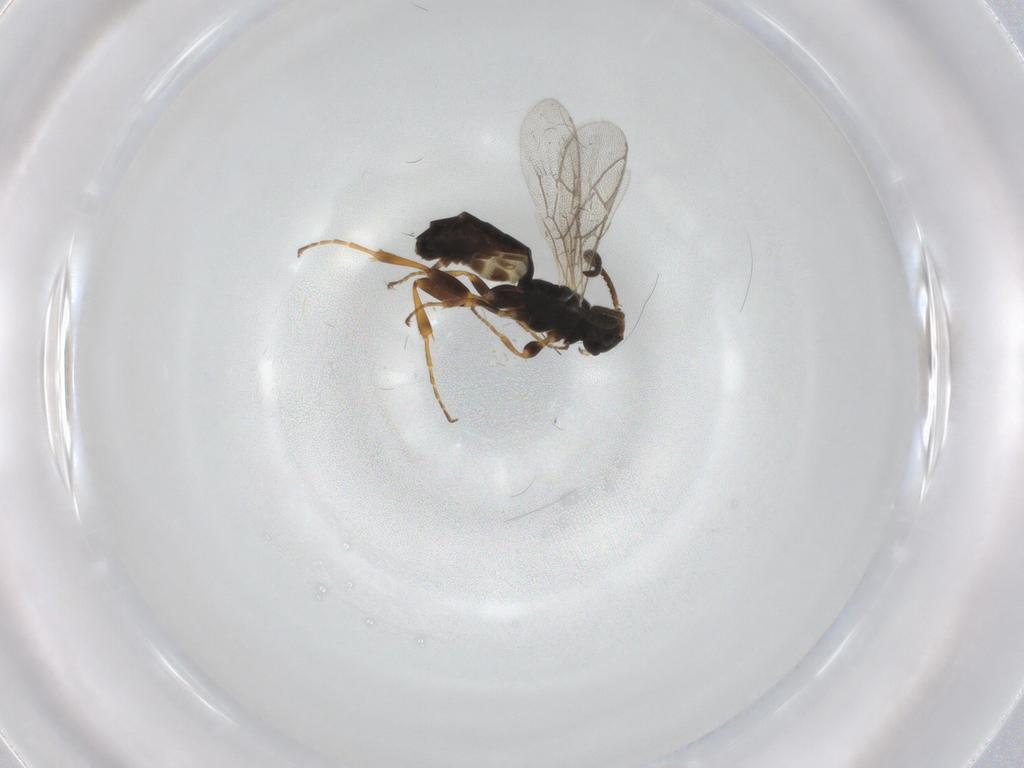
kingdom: Animalia
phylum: Arthropoda
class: Insecta
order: Hymenoptera
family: Ichneumonidae
